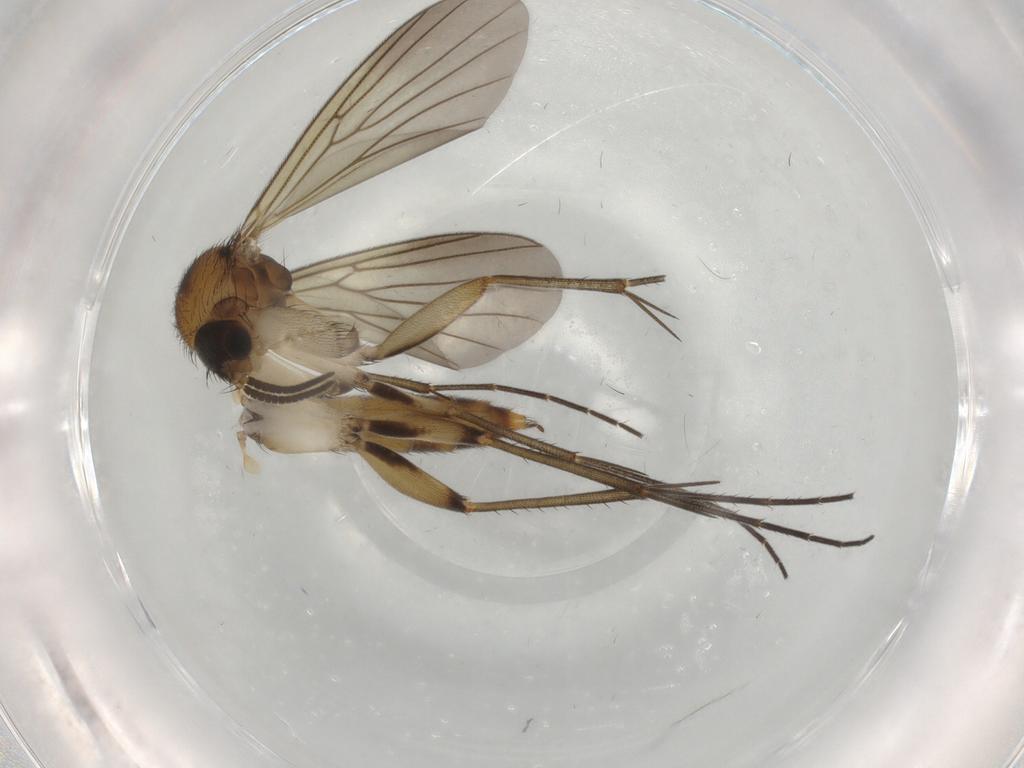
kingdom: Animalia
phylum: Arthropoda
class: Insecta
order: Diptera
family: Mycetophilidae
